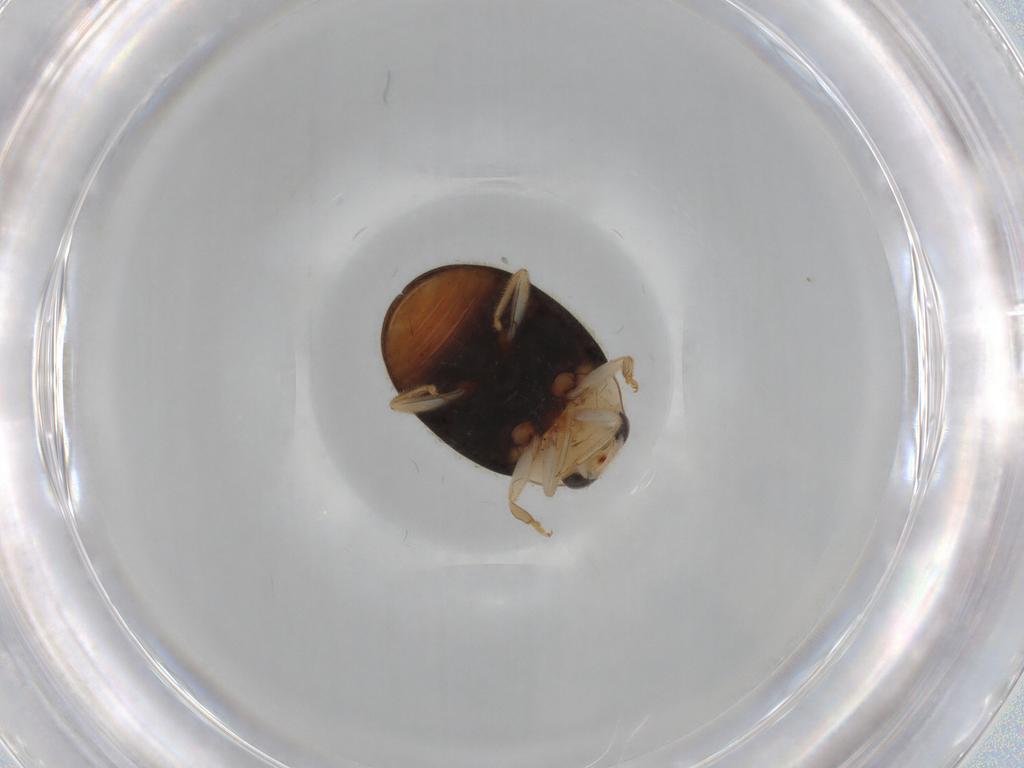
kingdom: Animalia
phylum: Arthropoda
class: Insecta
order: Coleoptera
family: Coccinellidae
